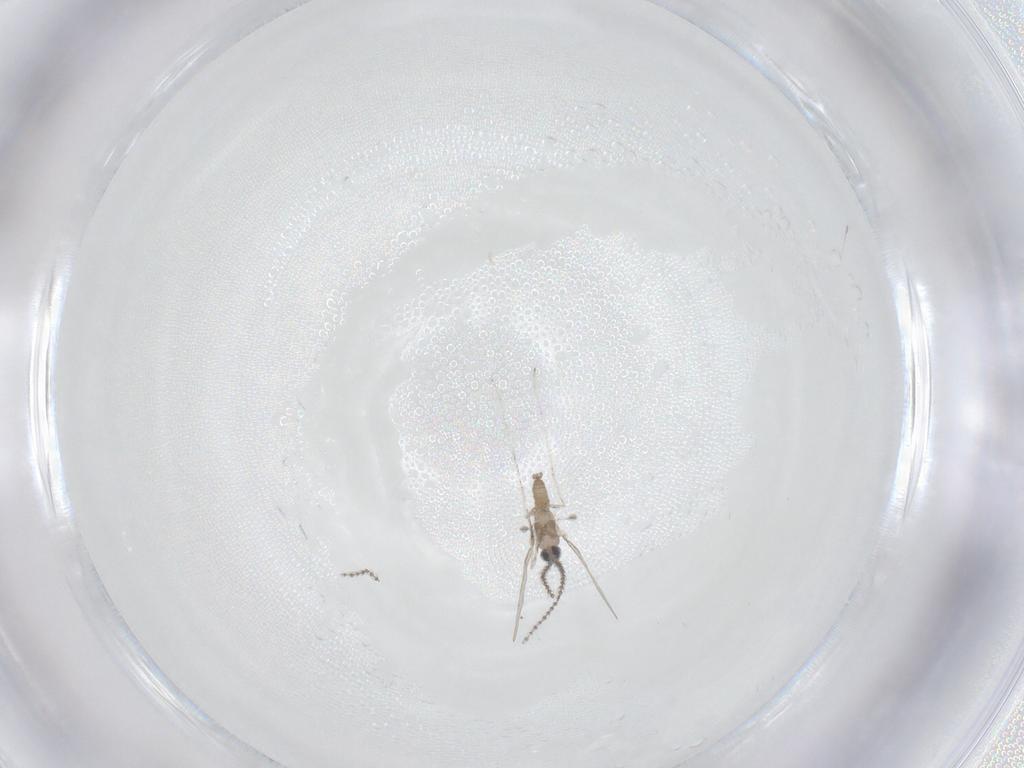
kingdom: Animalia
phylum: Arthropoda
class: Insecta
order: Diptera
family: Cecidomyiidae
